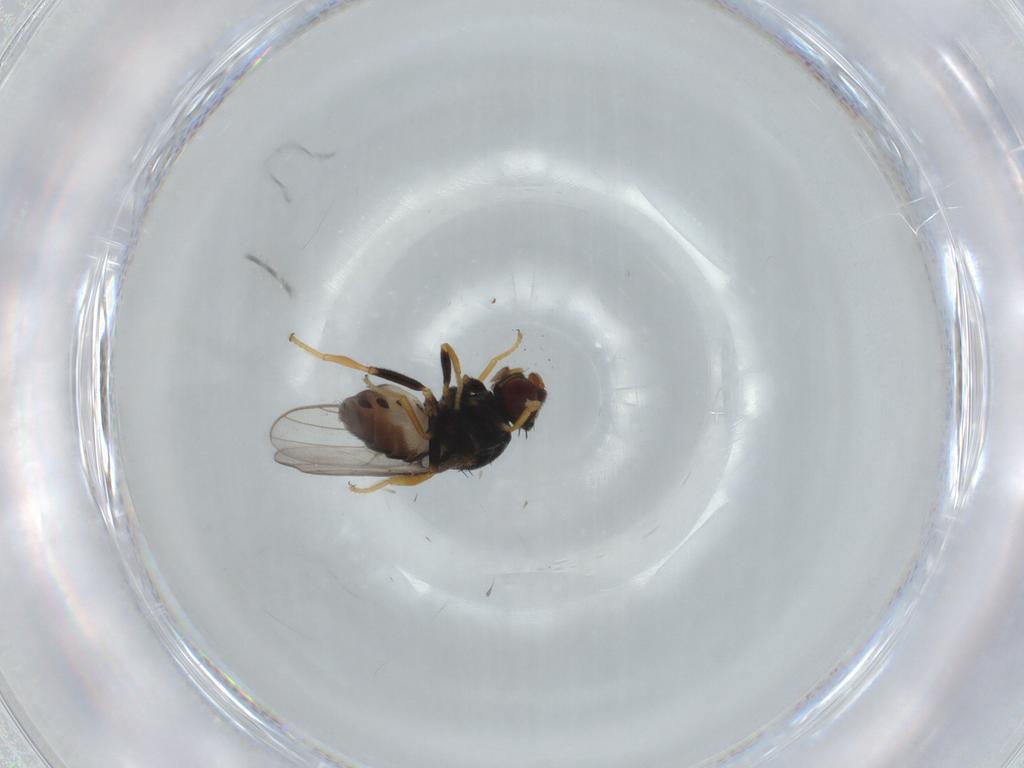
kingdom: Animalia
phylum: Arthropoda
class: Insecta
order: Diptera
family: Chloropidae
